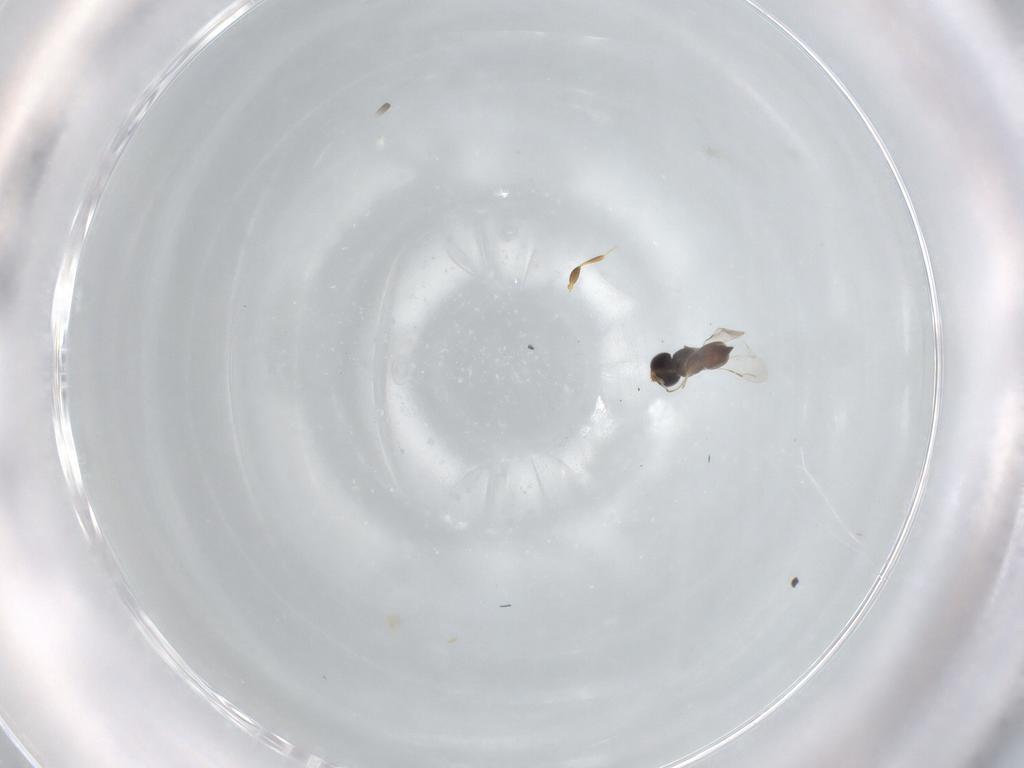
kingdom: Animalia
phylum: Arthropoda
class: Insecta
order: Hymenoptera
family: Ceraphronidae
